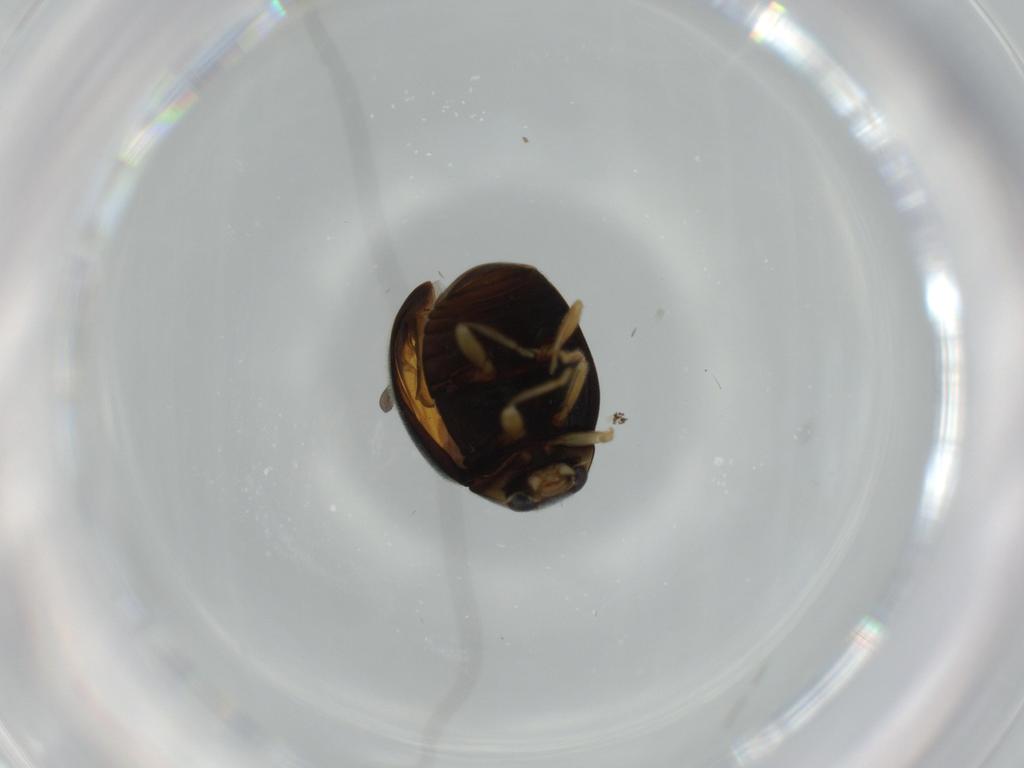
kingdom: Animalia
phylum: Arthropoda
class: Insecta
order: Coleoptera
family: Coccinellidae
